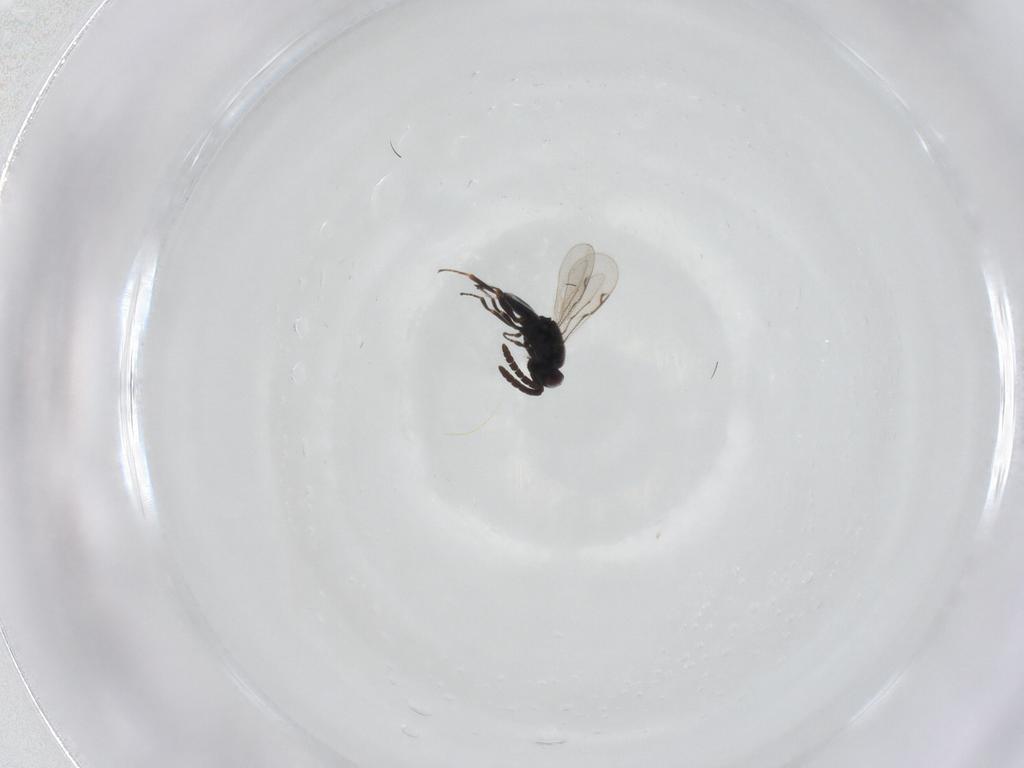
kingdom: Animalia
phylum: Arthropoda
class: Insecta
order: Hymenoptera
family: Eunotidae
